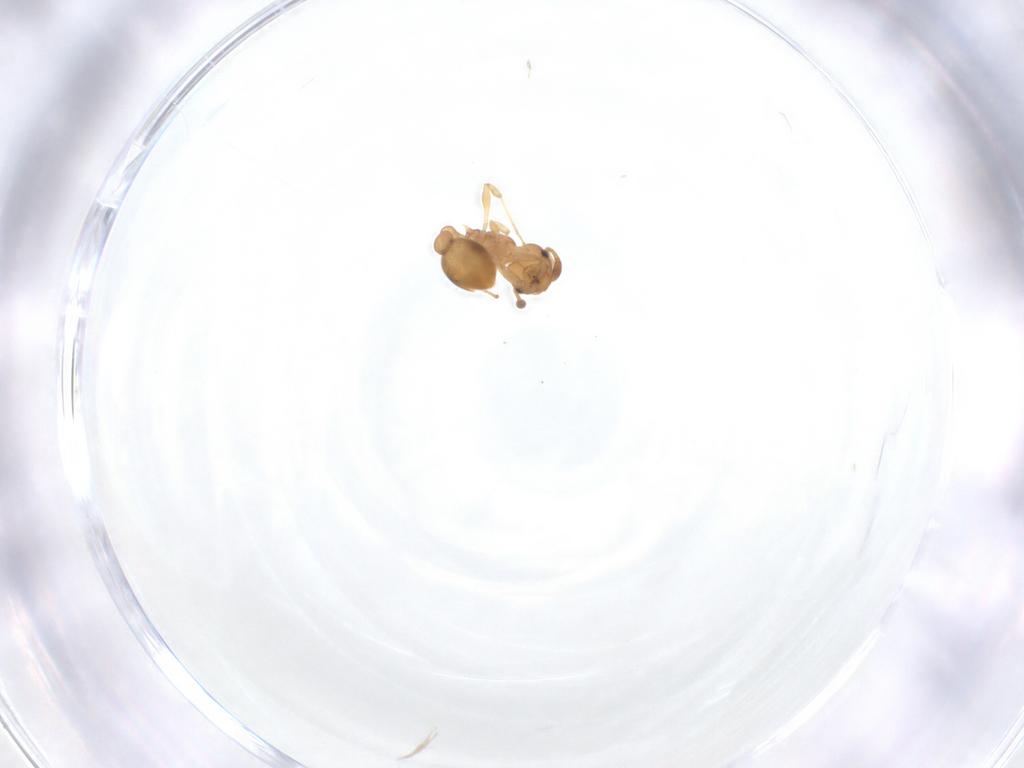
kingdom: Animalia
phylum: Arthropoda
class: Insecta
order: Hymenoptera
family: Formicidae
